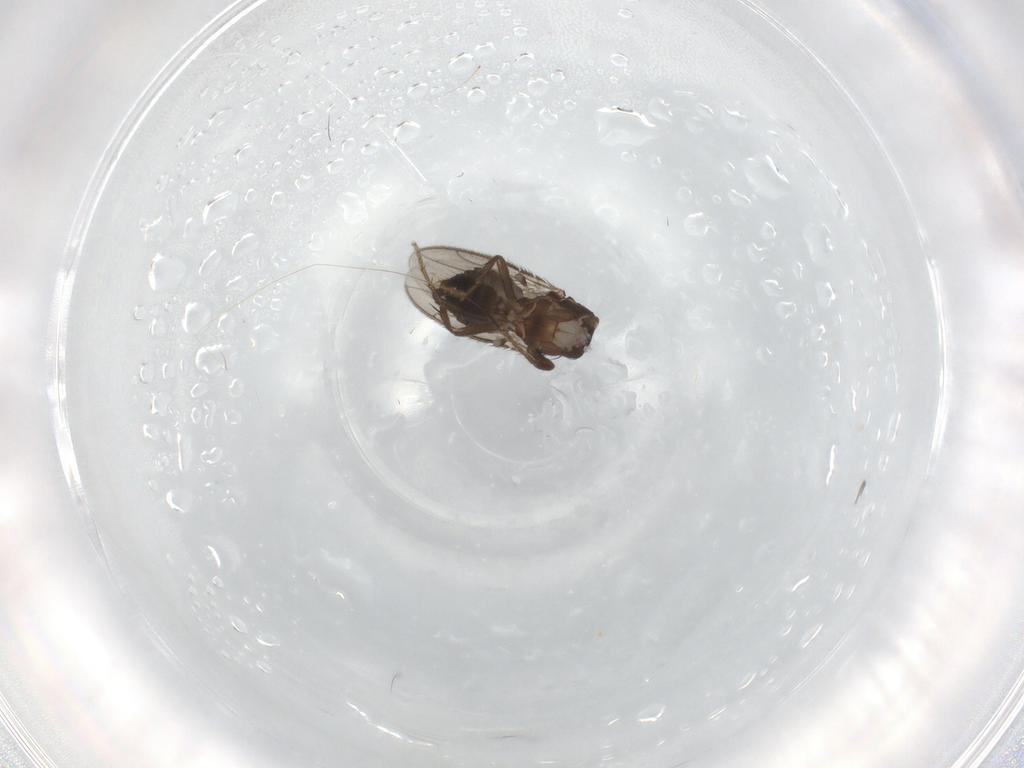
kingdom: Animalia
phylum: Arthropoda
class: Insecta
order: Diptera
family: Sphaeroceridae
